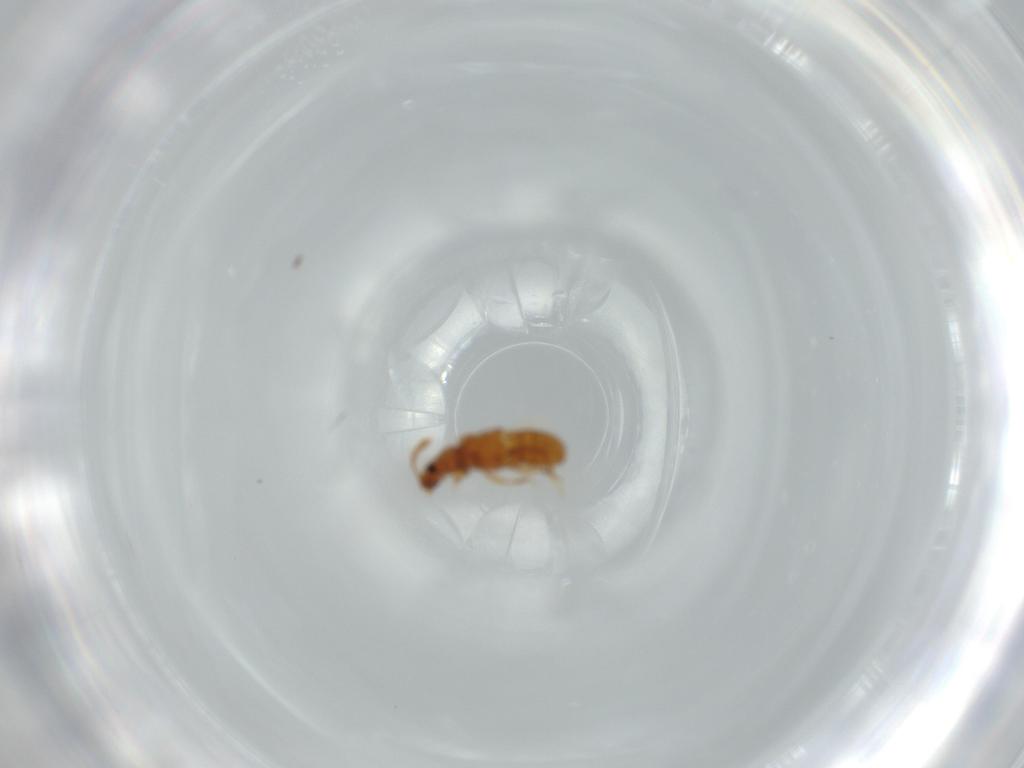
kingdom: Animalia
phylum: Arthropoda
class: Insecta
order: Coleoptera
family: Staphylinidae
